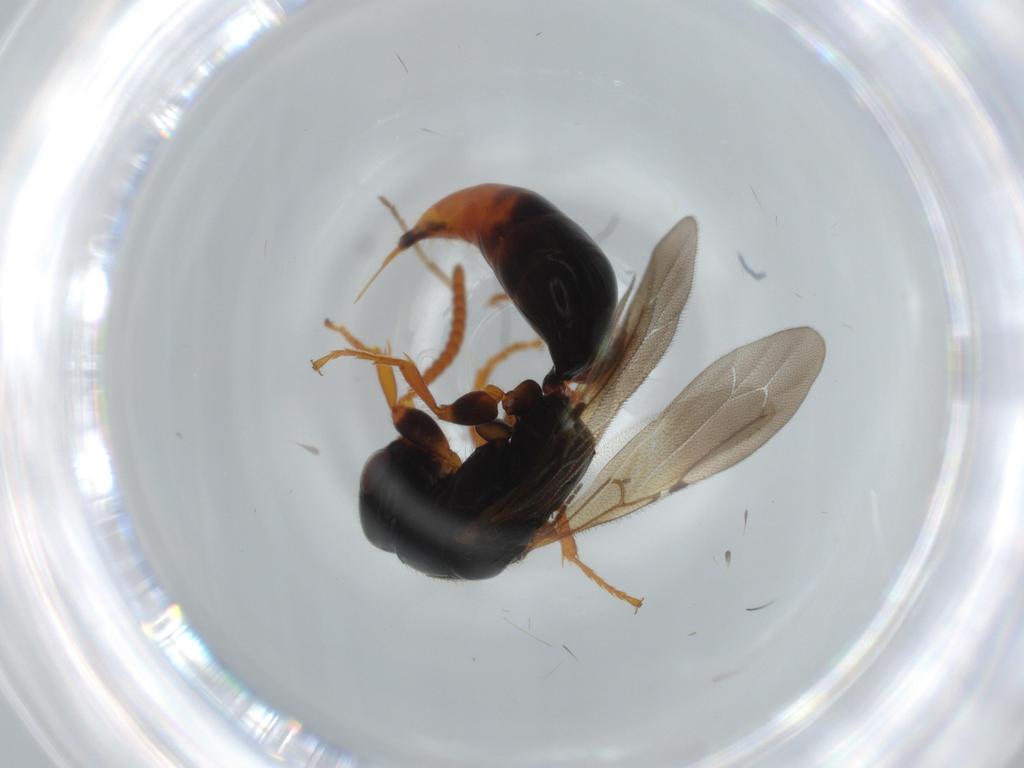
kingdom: Animalia
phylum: Arthropoda
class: Insecta
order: Hymenoptera
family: Bethylidae
